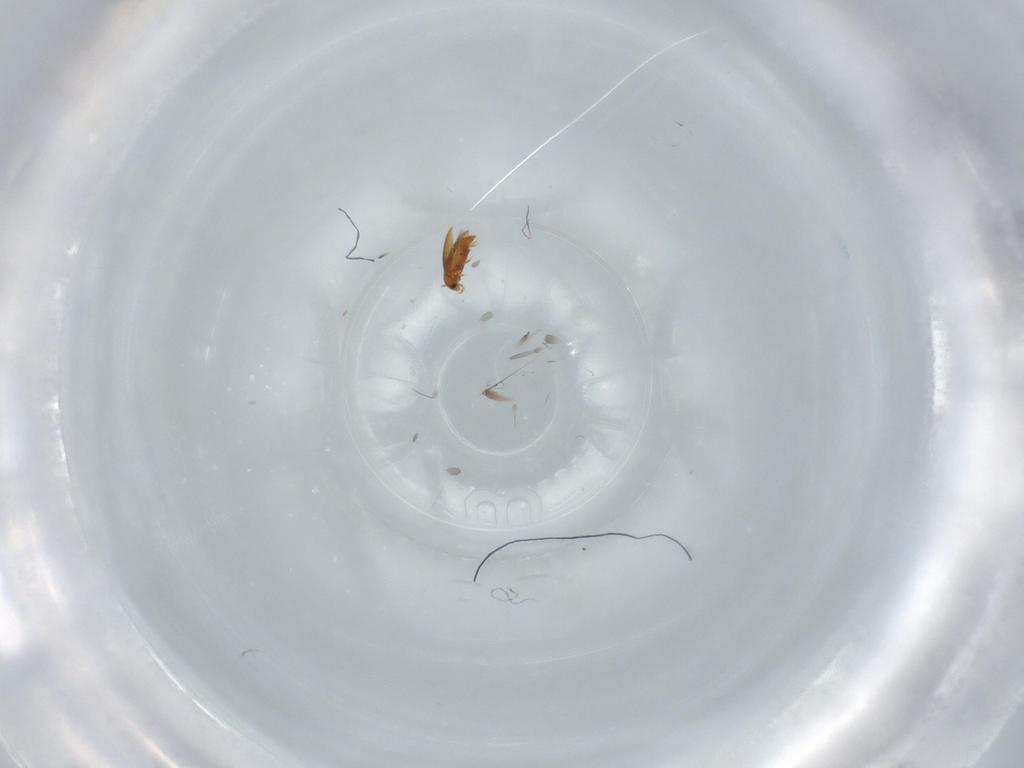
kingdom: Animalia
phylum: Arthropoda
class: Insecta
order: Coleoptera
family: Ptiliidae
